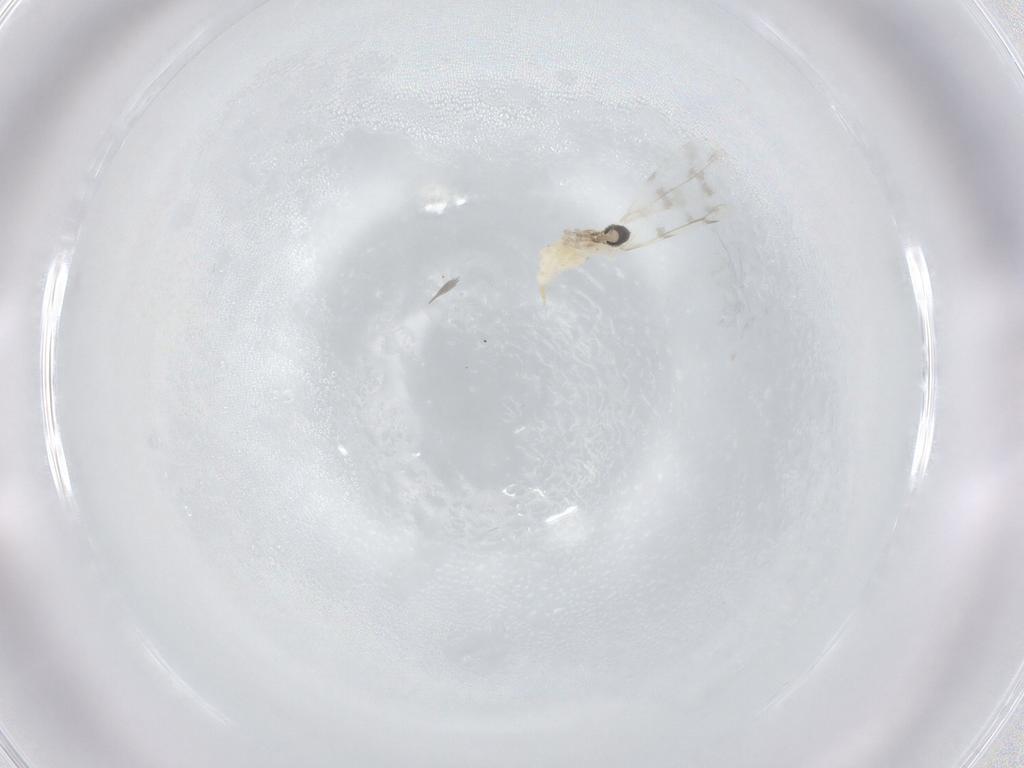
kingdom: Animalia
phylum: Arthropoda
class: Insecta
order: Diptera
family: Cecidomyiidae
